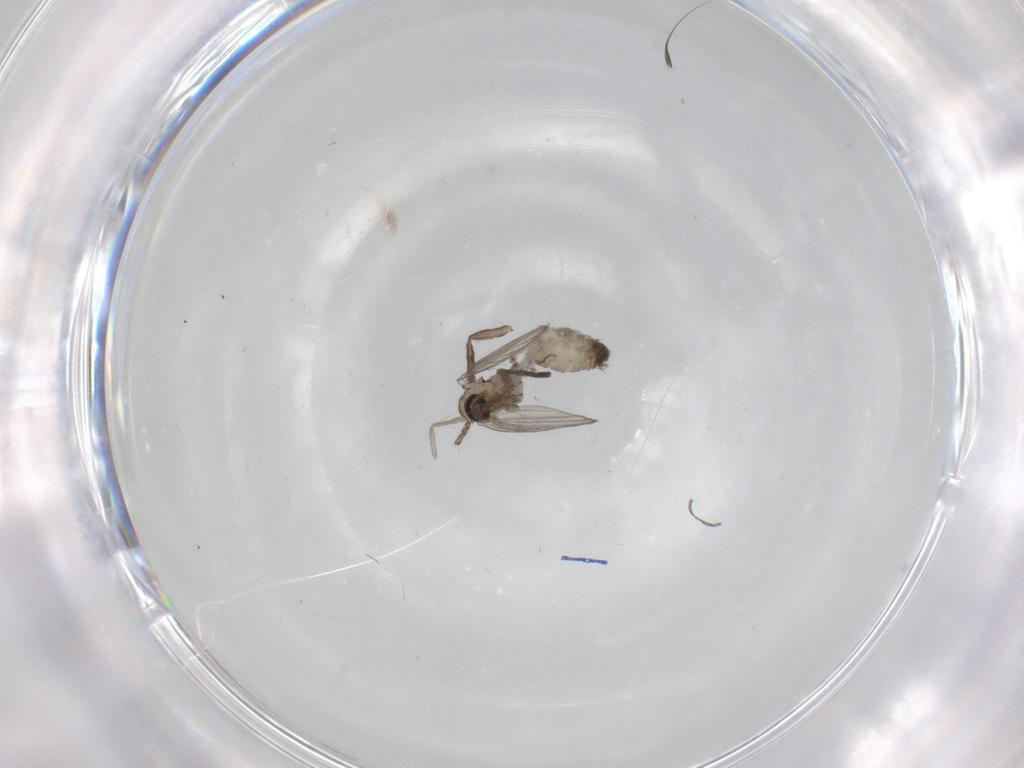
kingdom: Animalia
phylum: Arthropoda
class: Insecta
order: Diptera
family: Psychodidae
